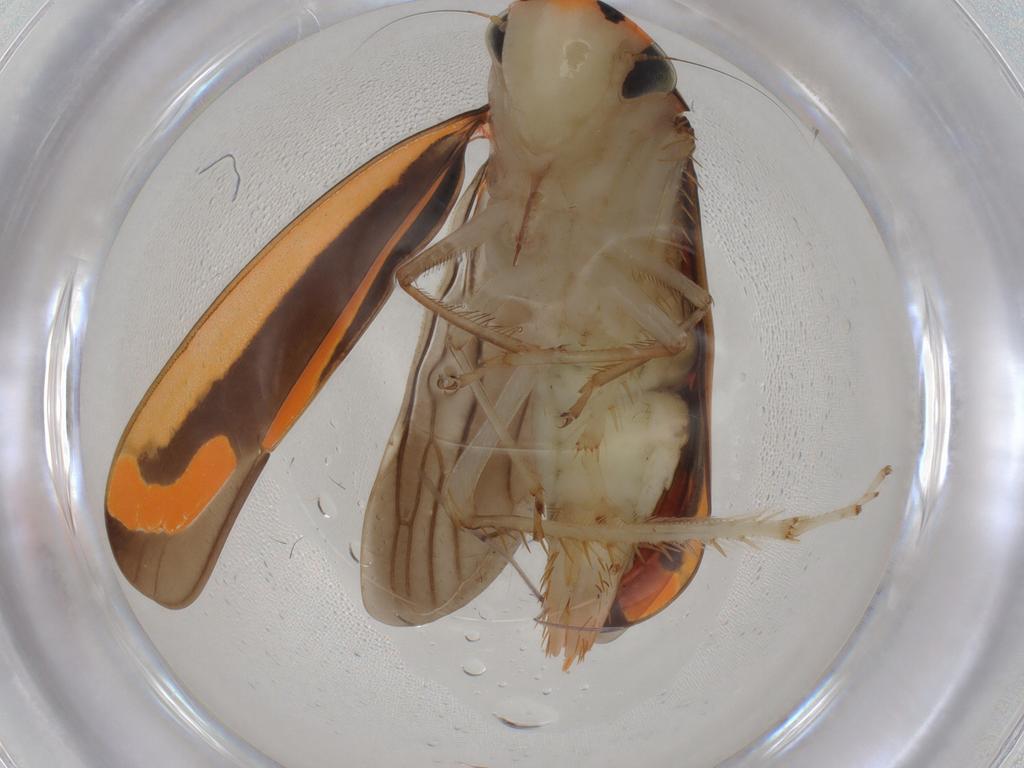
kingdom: Animalia
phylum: Arthropoda
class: Insecta
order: Hemiptera
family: Cicadellidae
